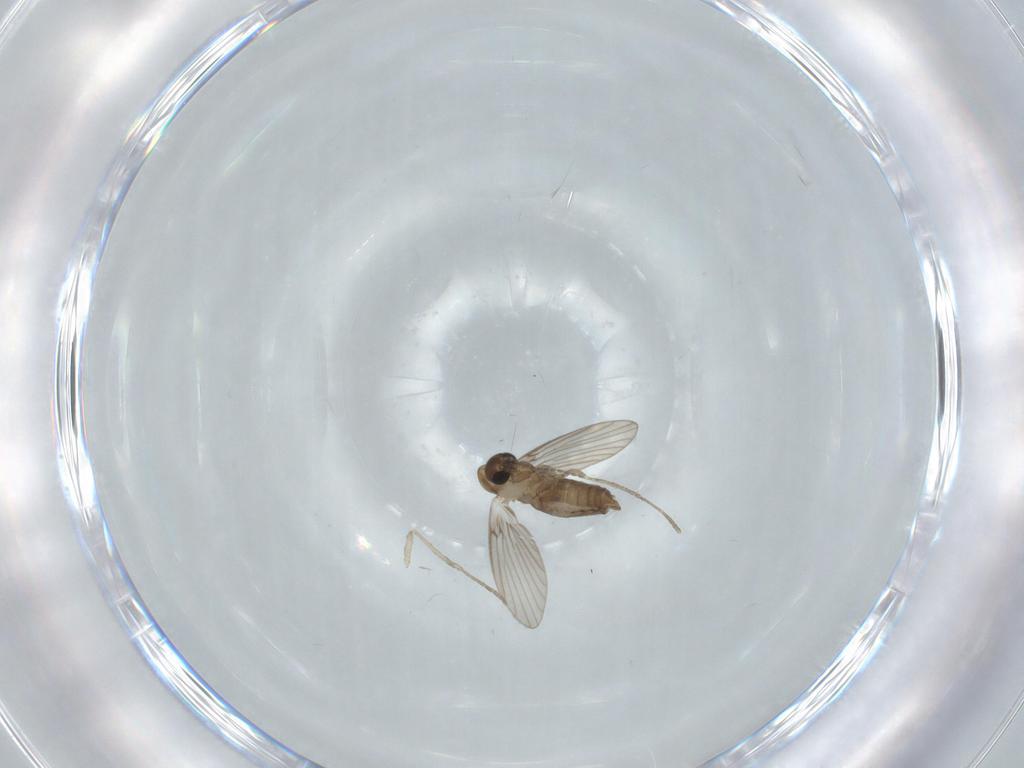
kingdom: Animalia
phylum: Arthropoda
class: Insecta
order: Diptera
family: Psychodidae
